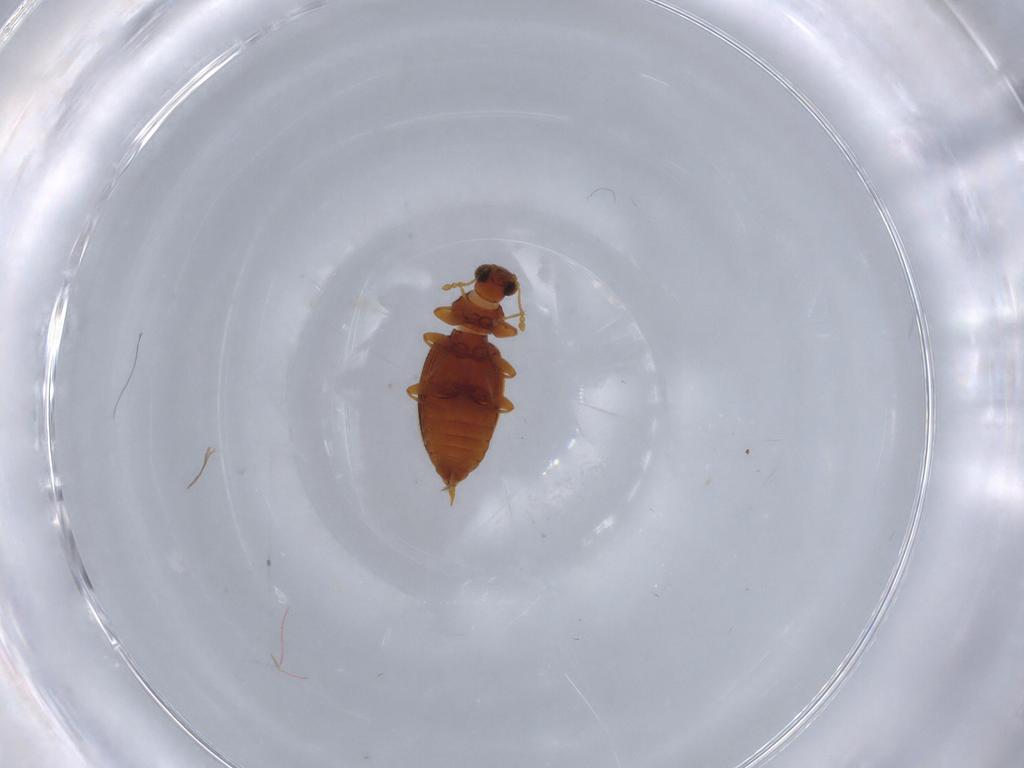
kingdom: Animalia
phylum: Arthropoda
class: Insecta
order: Coleoptera
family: Latridiidae
